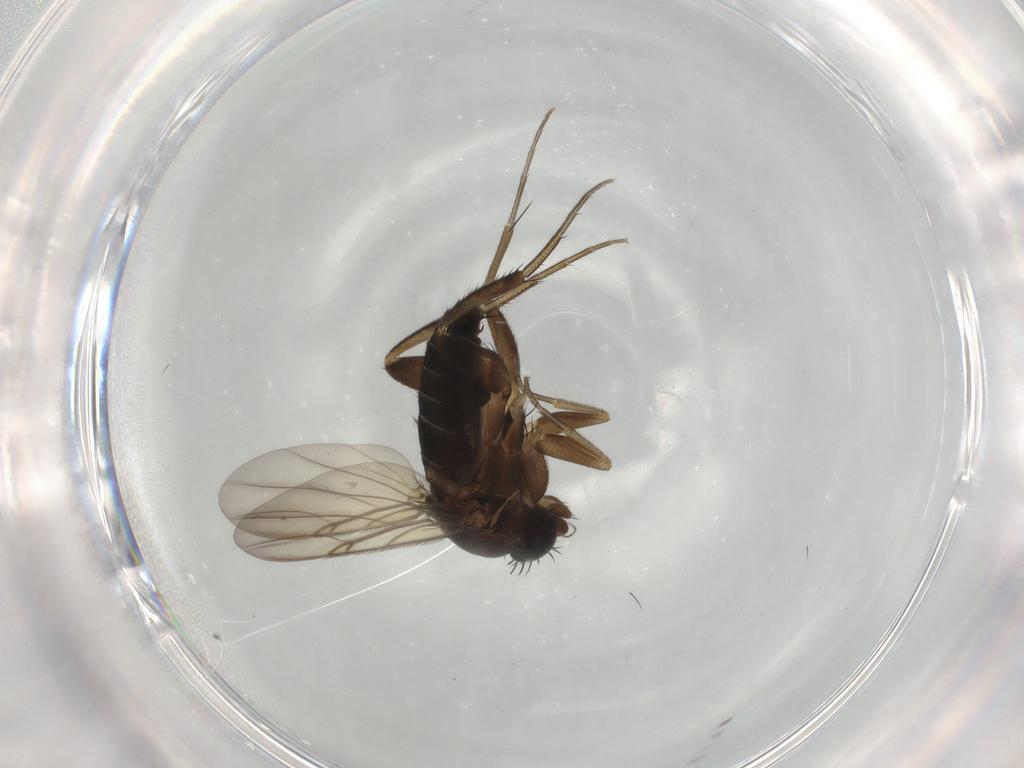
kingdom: Animalia
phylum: Arthropoda
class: Insecta
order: Diptera
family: Phoridae
